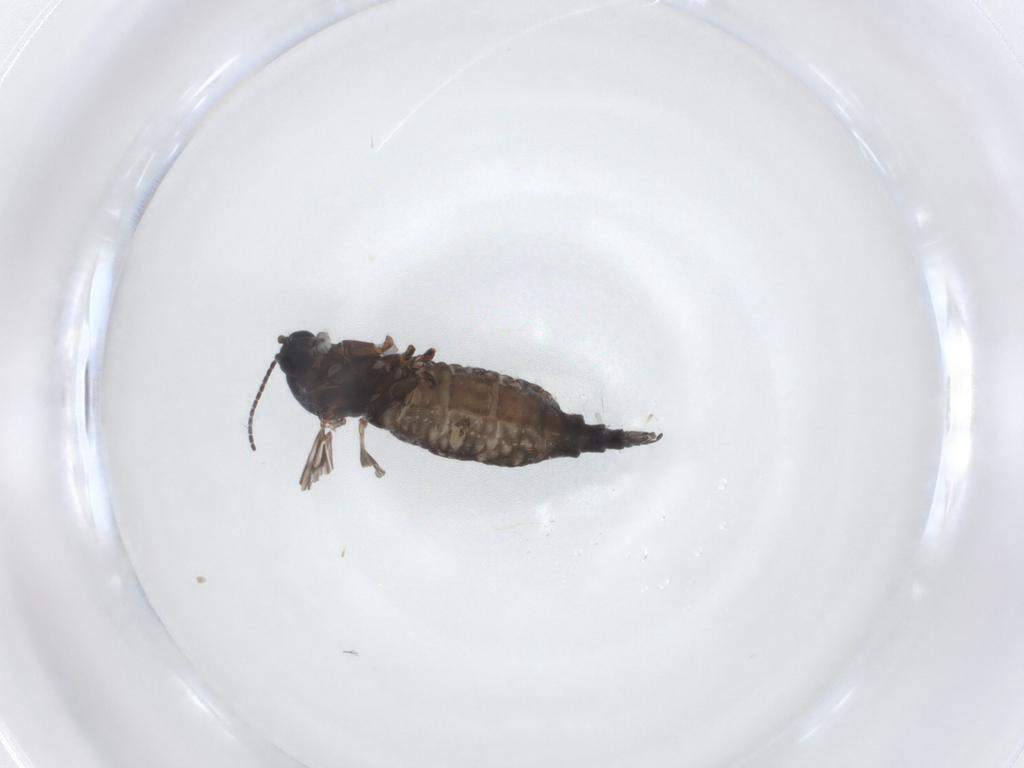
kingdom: Animalia
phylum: Arthropoda
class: Insecta
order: Diptera
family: Sciaridae
